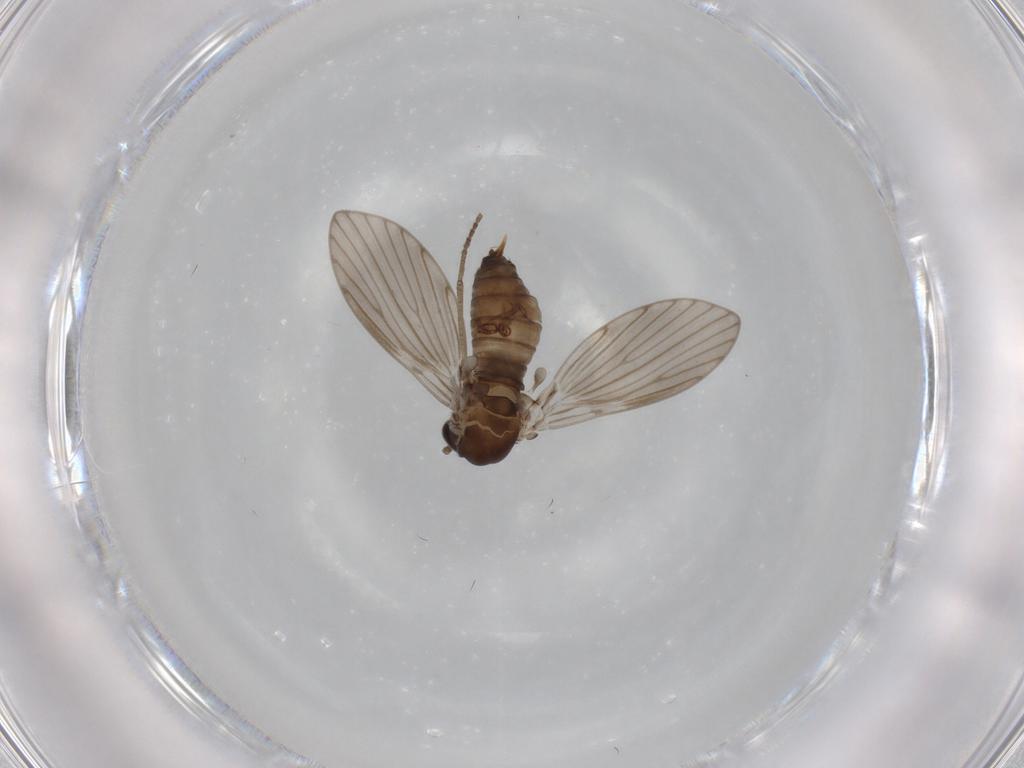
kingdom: Animalia
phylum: Arthropoda
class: Insecta
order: Diptera
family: Psychodidae
